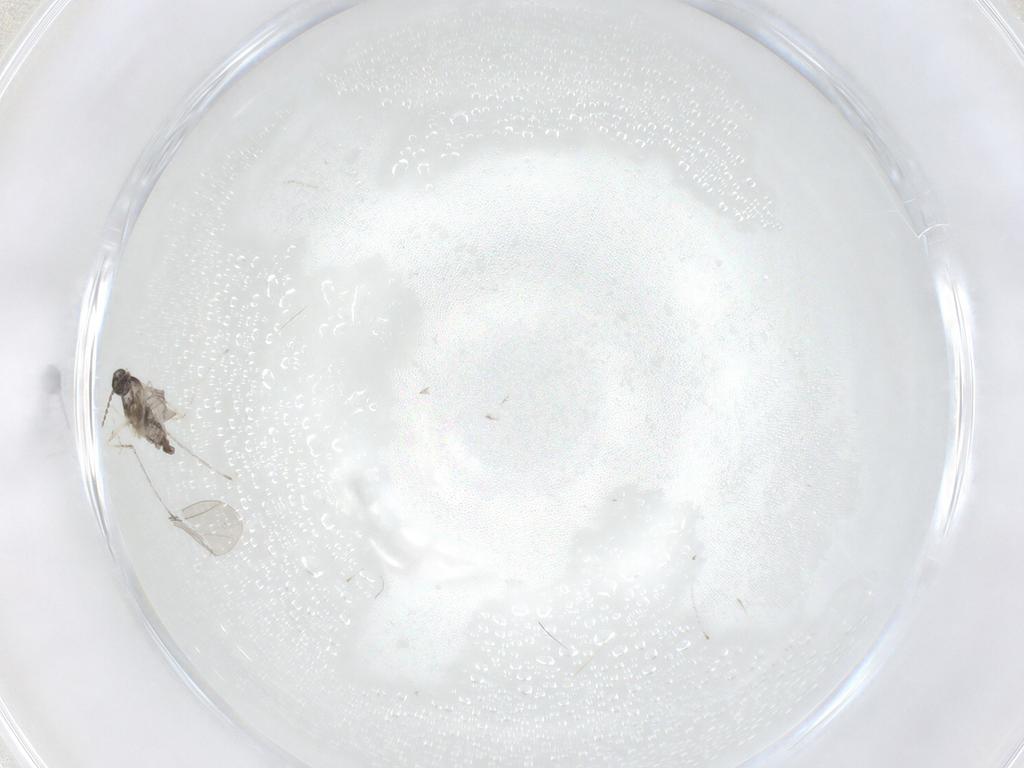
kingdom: Animalia
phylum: Arthropoda
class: Insecta
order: Diptera
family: Cecidomyiidae
